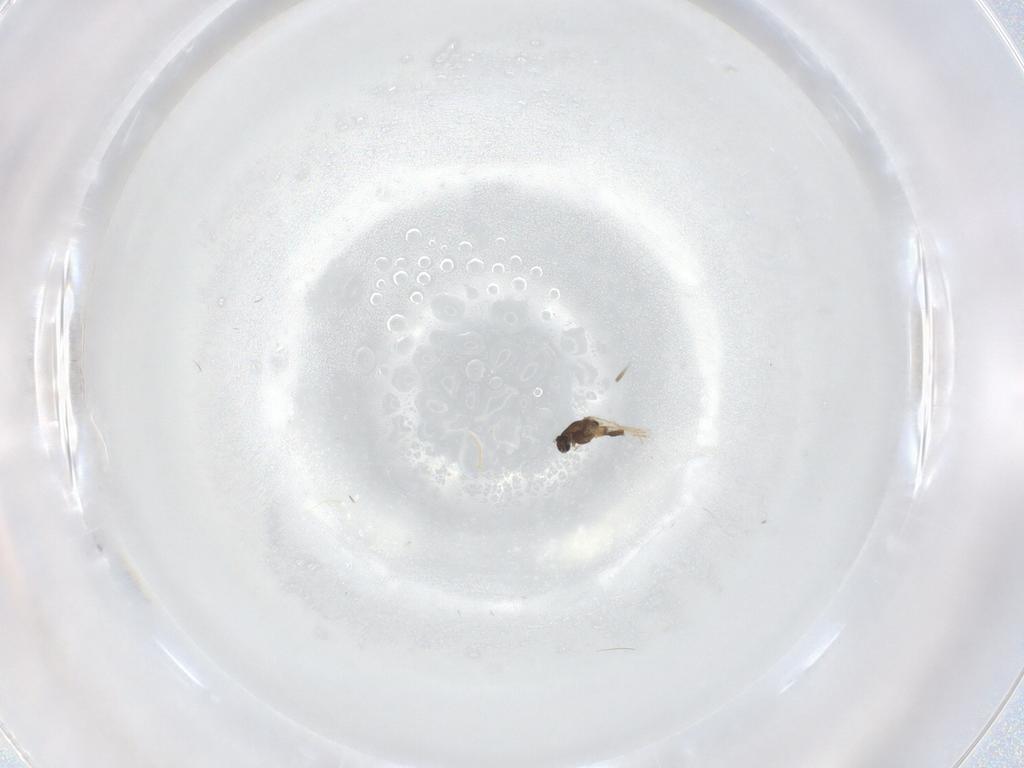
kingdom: Animalia
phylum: Arthropoda
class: Insecta
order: Diptera
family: Chironomidae
